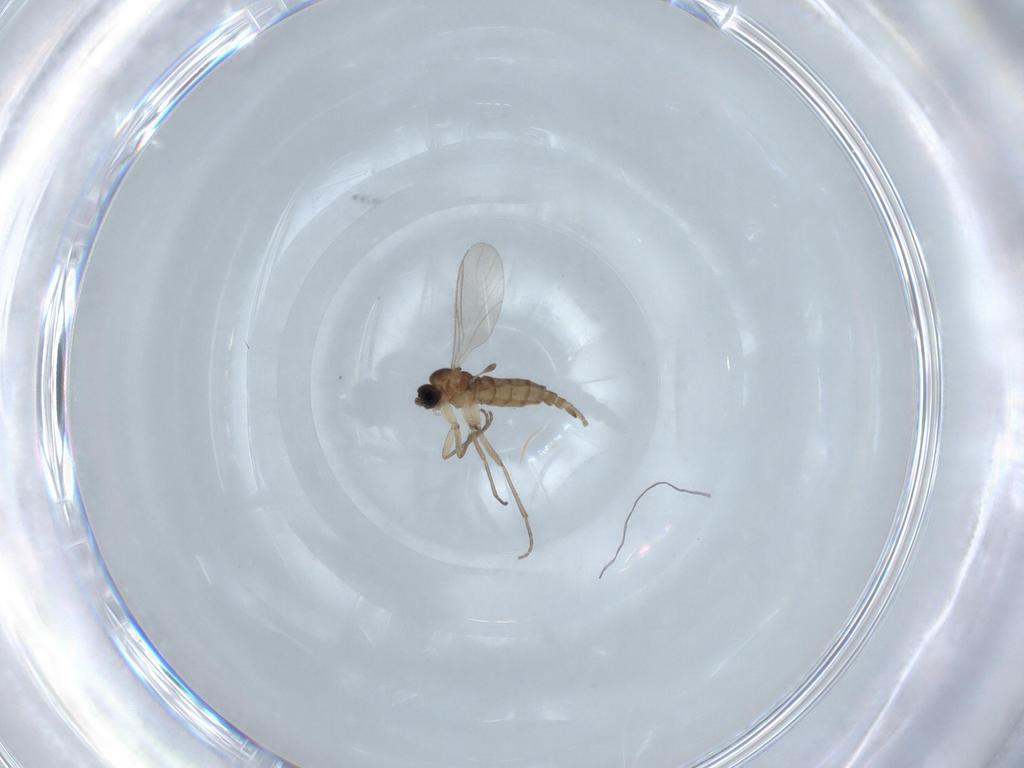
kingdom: Animalia
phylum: Arthropoda
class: Insecta
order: Diptera
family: Sciaridae
